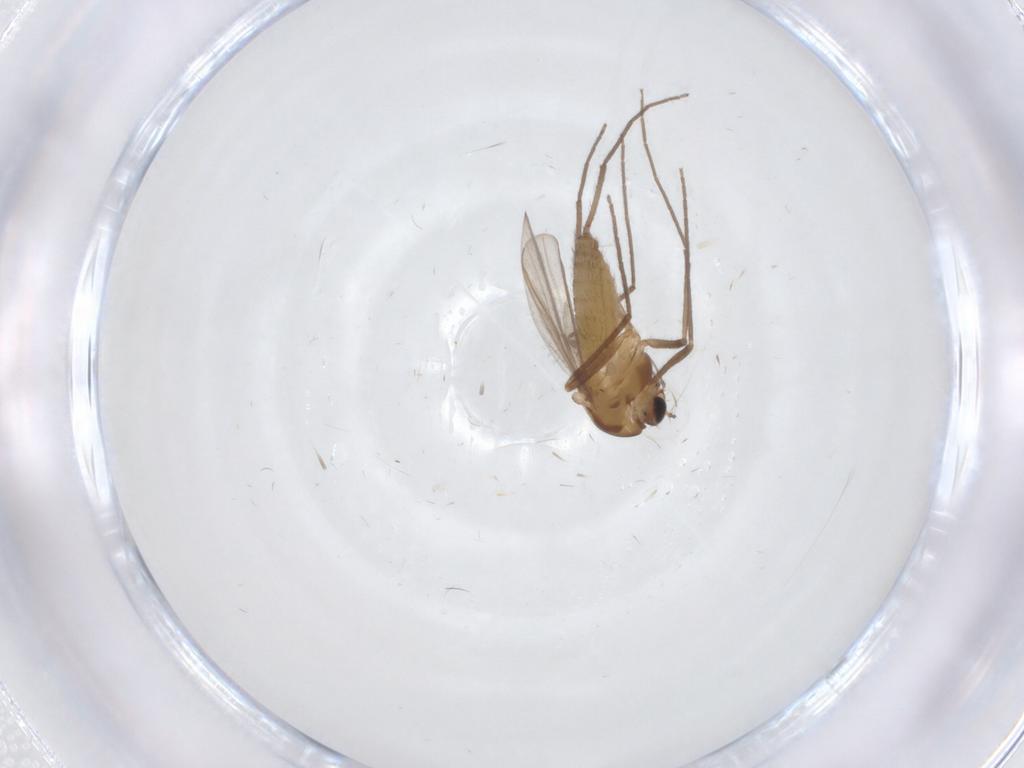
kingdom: Animalia
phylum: Arthropoda
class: Insecta
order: Diptera
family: Chironomidae
